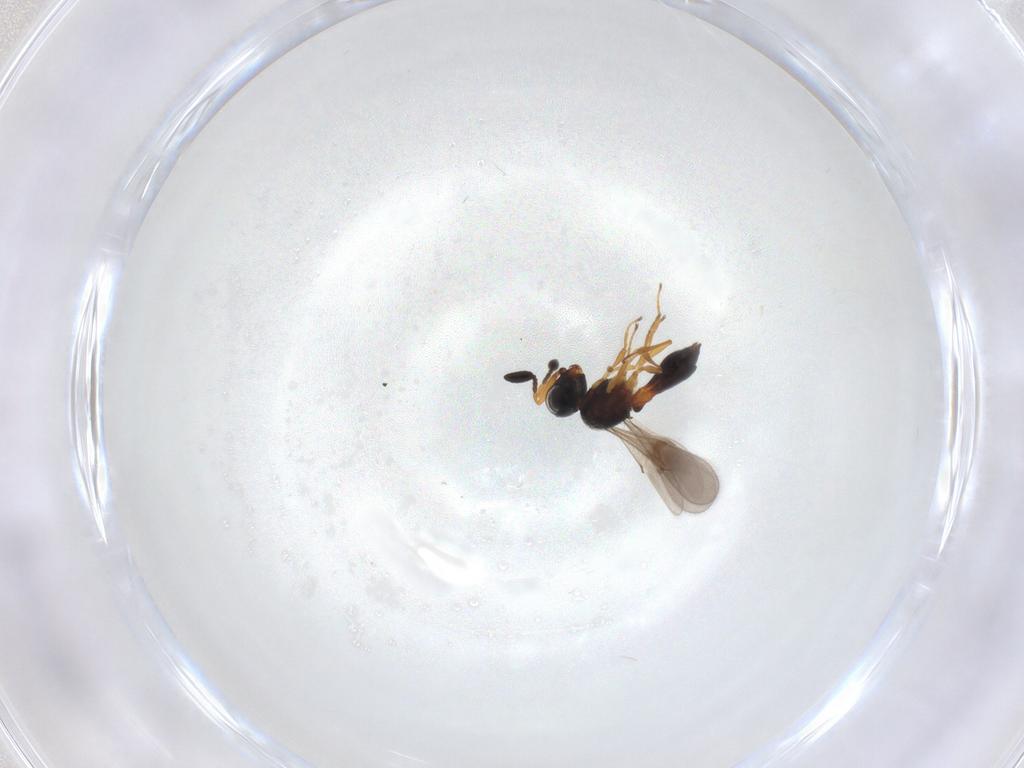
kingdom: Animalia
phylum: Arthropoda
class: Insecta
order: Hymenoptera
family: Scelionidae
